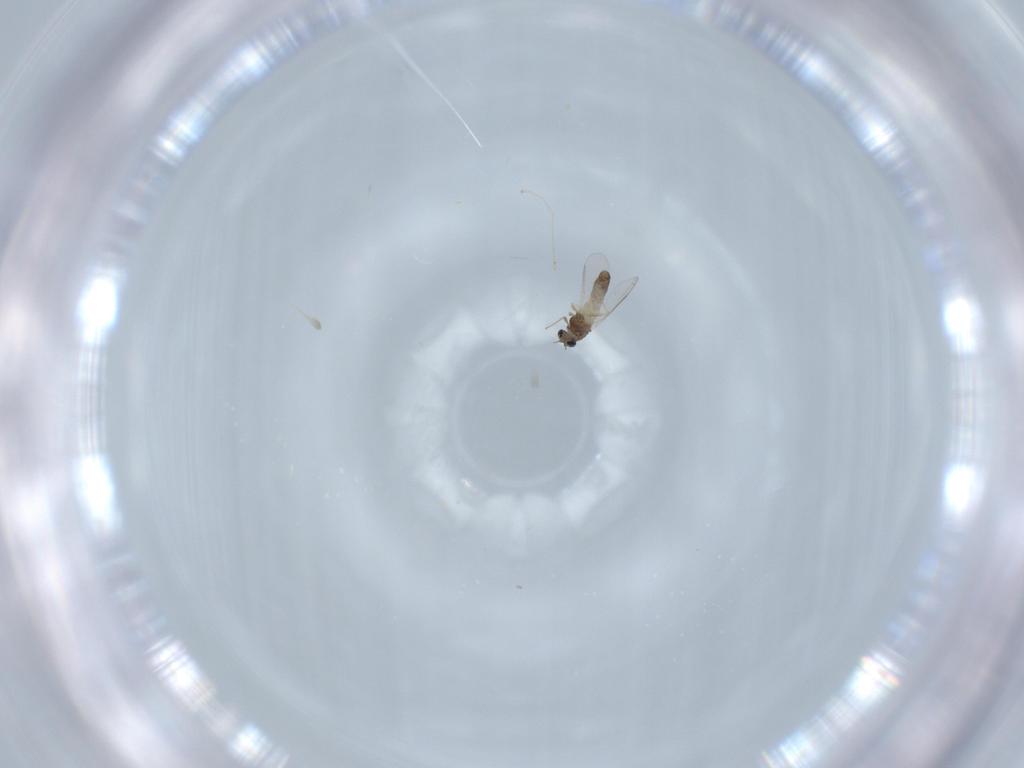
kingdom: Animalia
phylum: Arthropoda
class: Insecta
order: Diptera
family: Chironomidae
